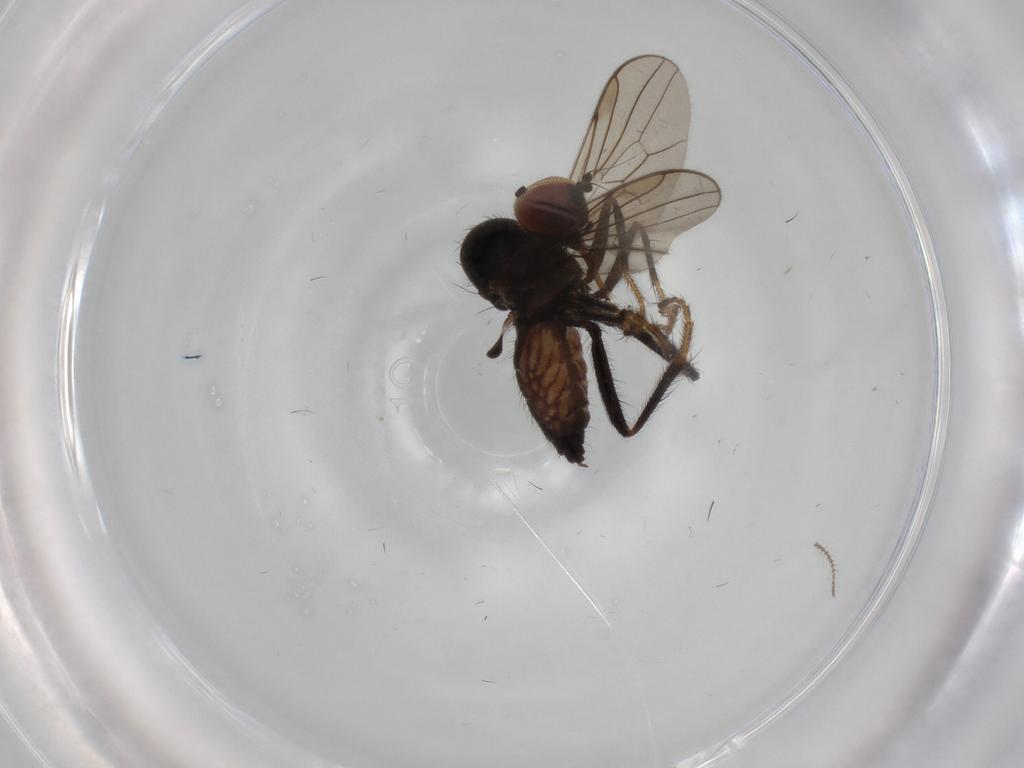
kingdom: Animalia
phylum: Arthropoda
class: Insecta
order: Diptera
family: Hybotidae
